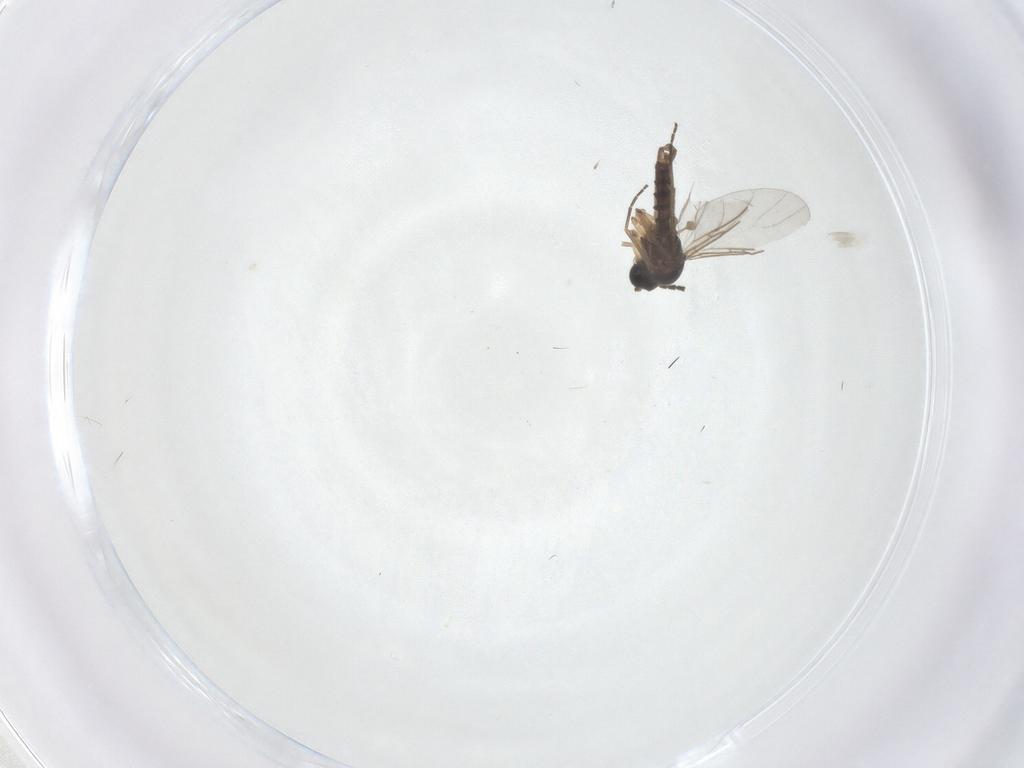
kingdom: Animalia
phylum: Arthropoda
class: Insecta
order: Diptera
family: Sciaridae
